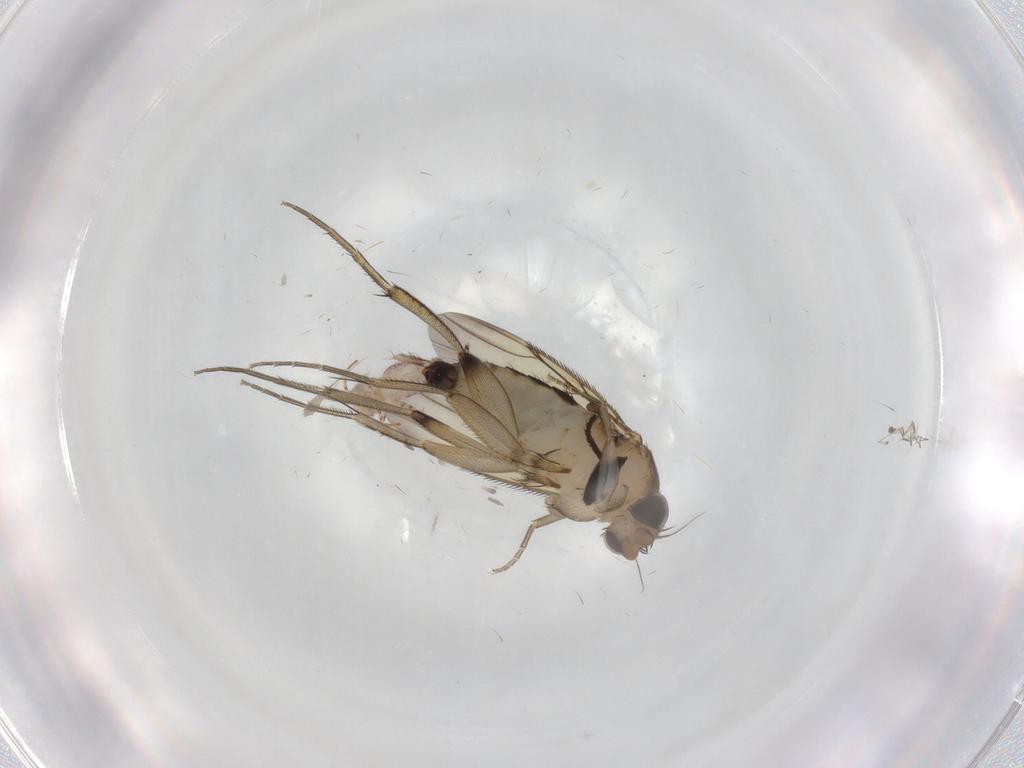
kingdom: Animalia
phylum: Arthropoda
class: Insecta
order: Diptera
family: Phoridae
